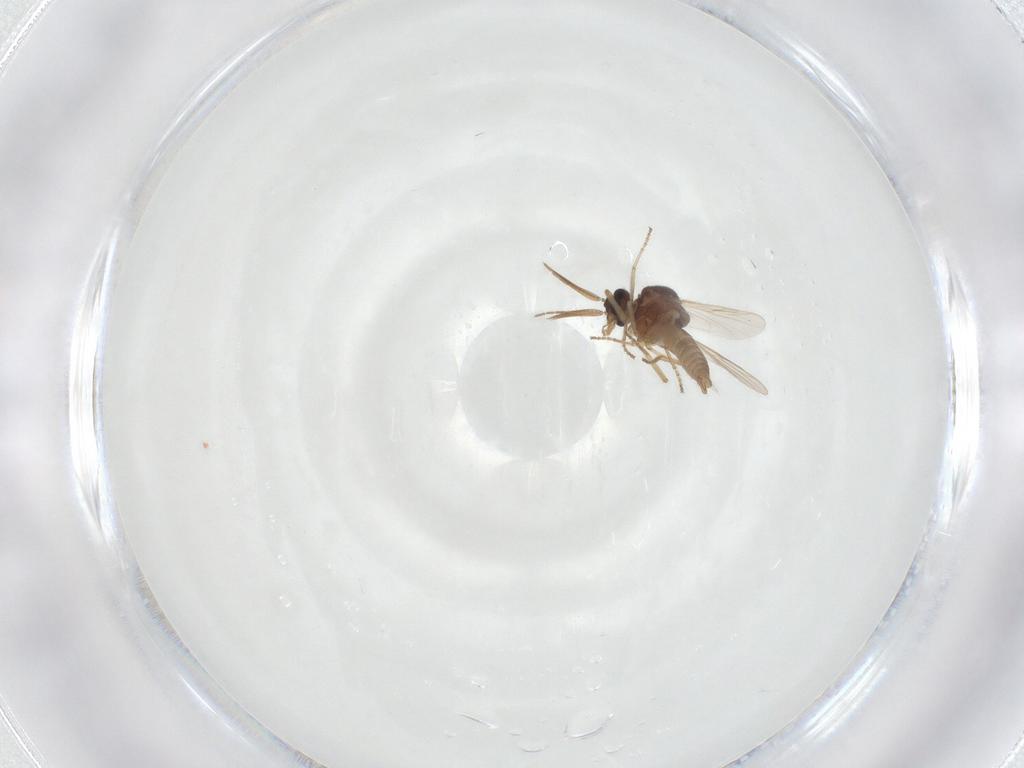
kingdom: Animalia
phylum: Arthropoda
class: Insecta
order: Diptera
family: Ceratopogonidae
